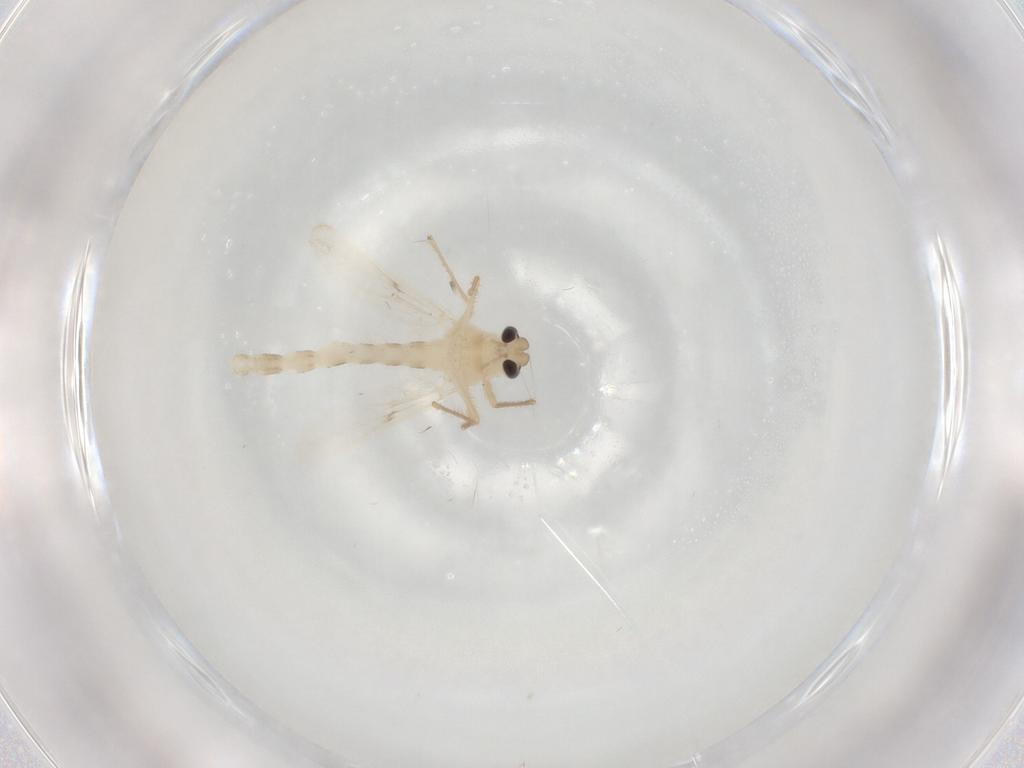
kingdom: Animalia
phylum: Arthropoda
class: Insecta
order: Diptera
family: Chironomidae
